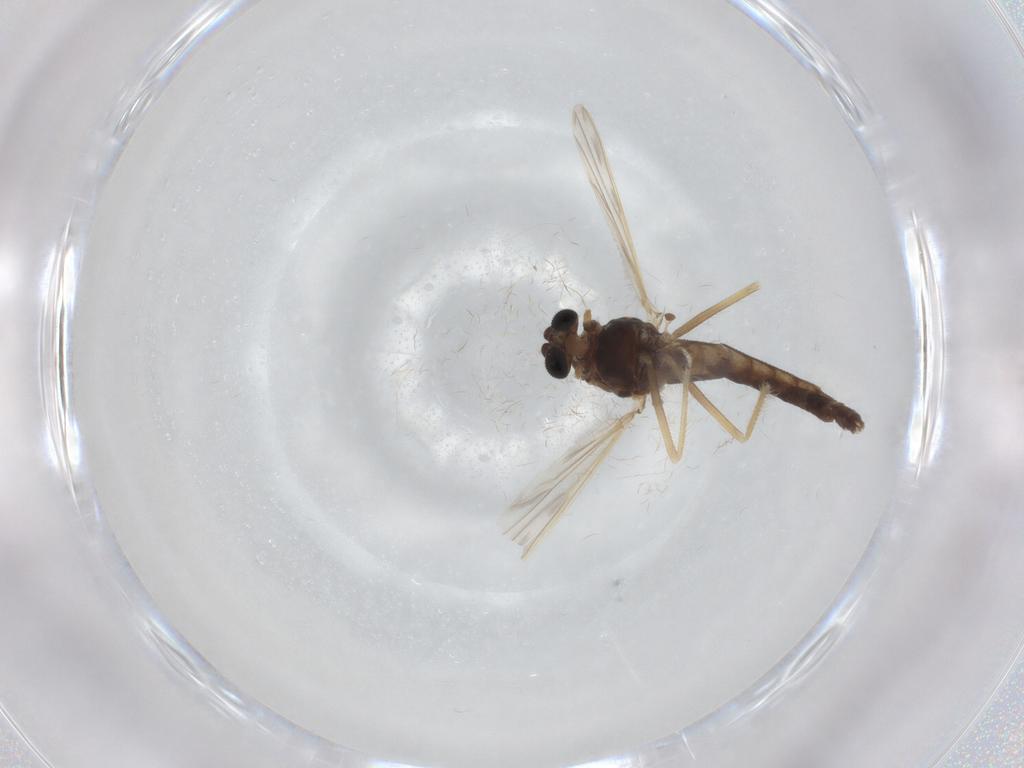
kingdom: Animalia
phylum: Arthropoda
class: Insecta
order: Diptera
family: Chironomidae
